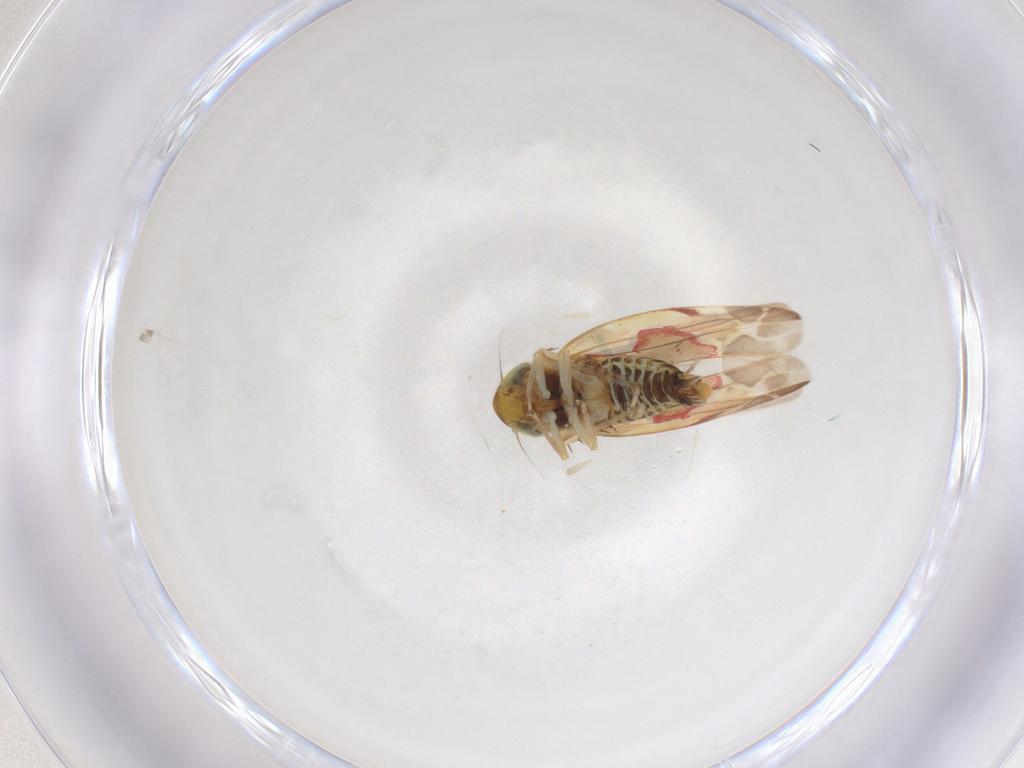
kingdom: Animalia
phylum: Arthropoda
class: Insecta
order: Hemiptera
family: Cicadellidae
